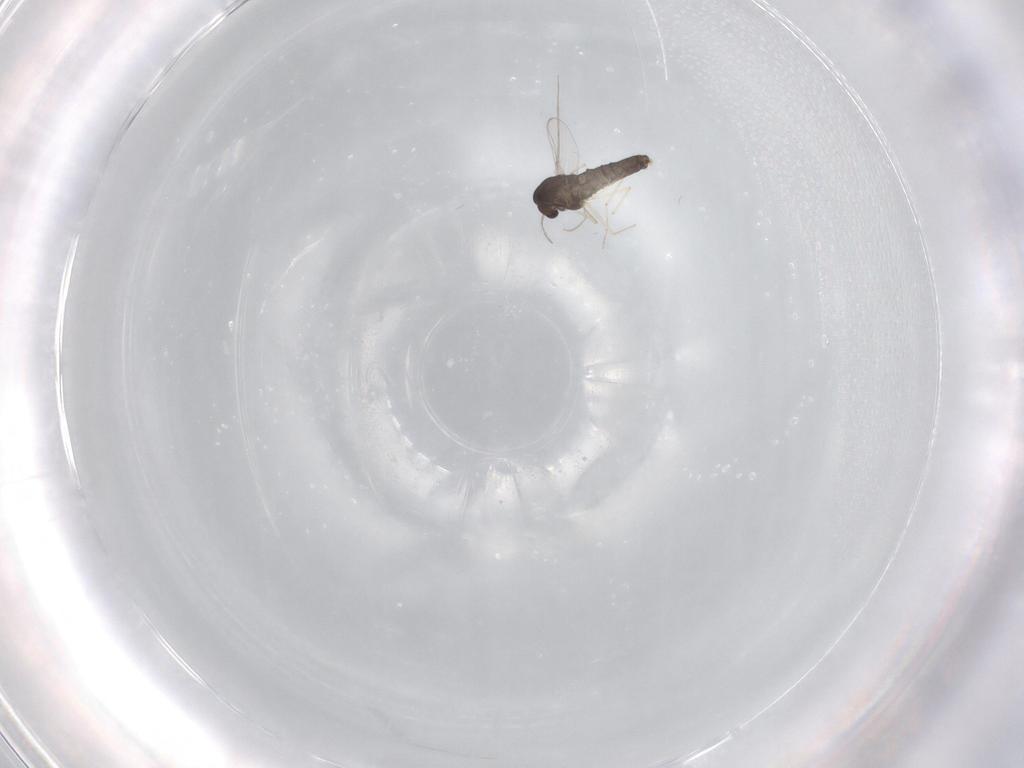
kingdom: Animalia
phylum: Arthropoda
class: Insecta
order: Diptera
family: Chironomidae
